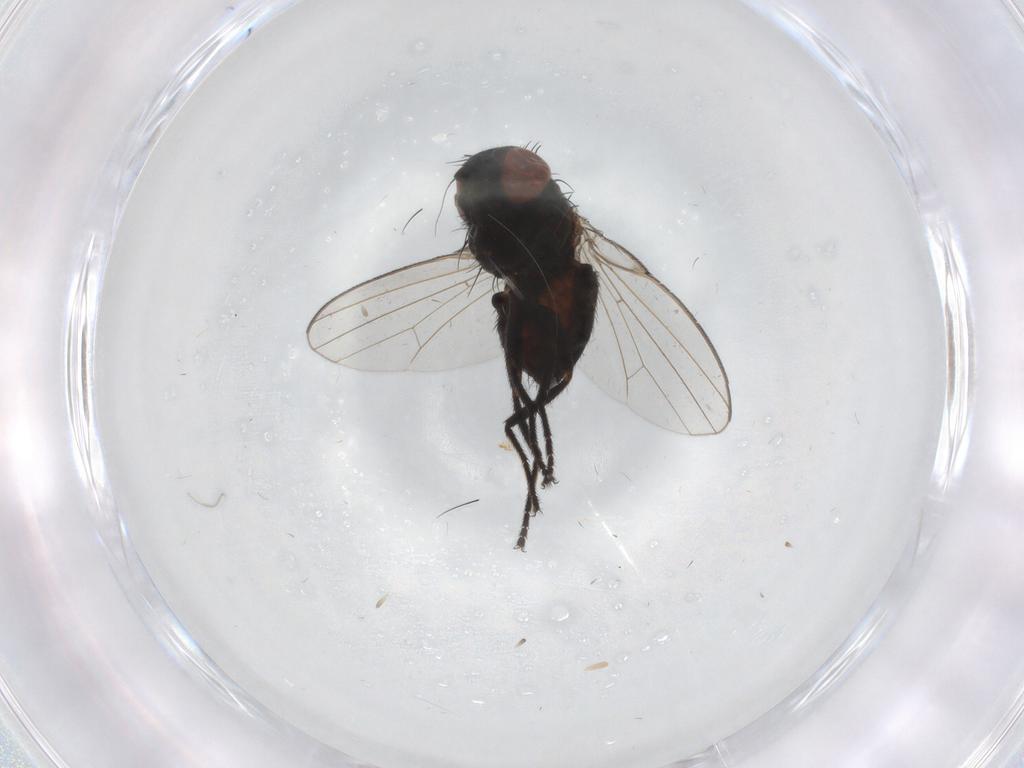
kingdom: Animalia
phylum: Arthropoda
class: Insecta
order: Diptera
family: Milichiidae
